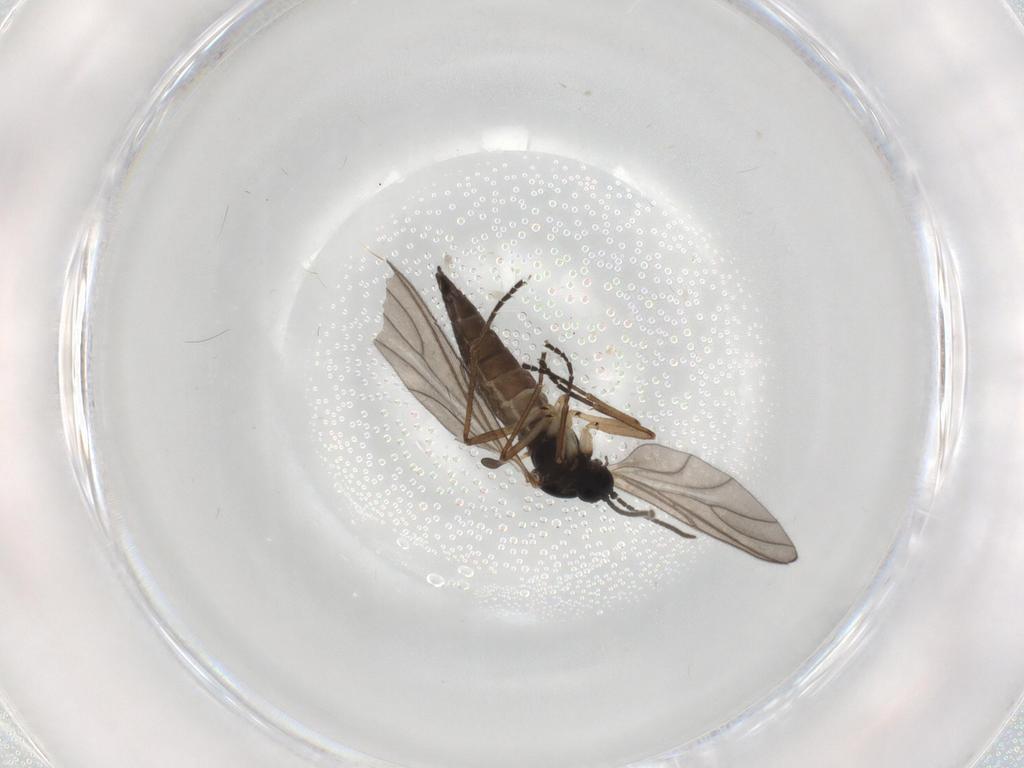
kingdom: Animalia
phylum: Arthropoda
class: Insecta
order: Diptera
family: Sciaridae
